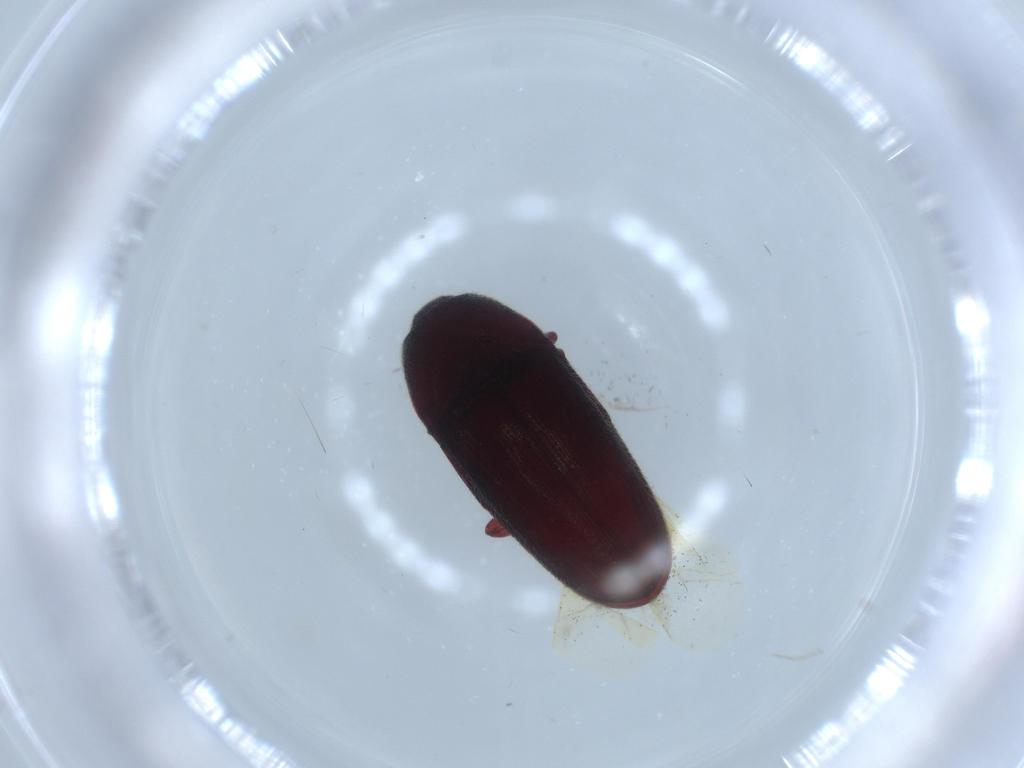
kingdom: Animalia
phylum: Arthropoda
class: Insecta
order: Coleoptera
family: Throscidae
